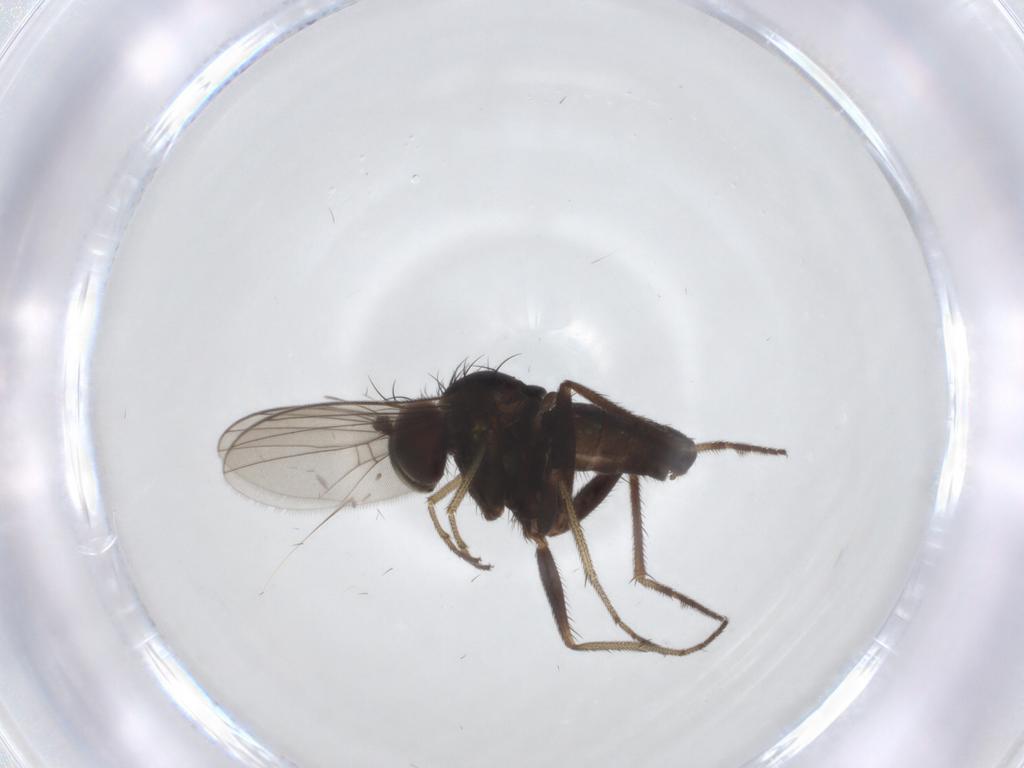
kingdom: Animalia
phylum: Arthropoda
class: Insecta
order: Diptera
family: Dolichopodidae
